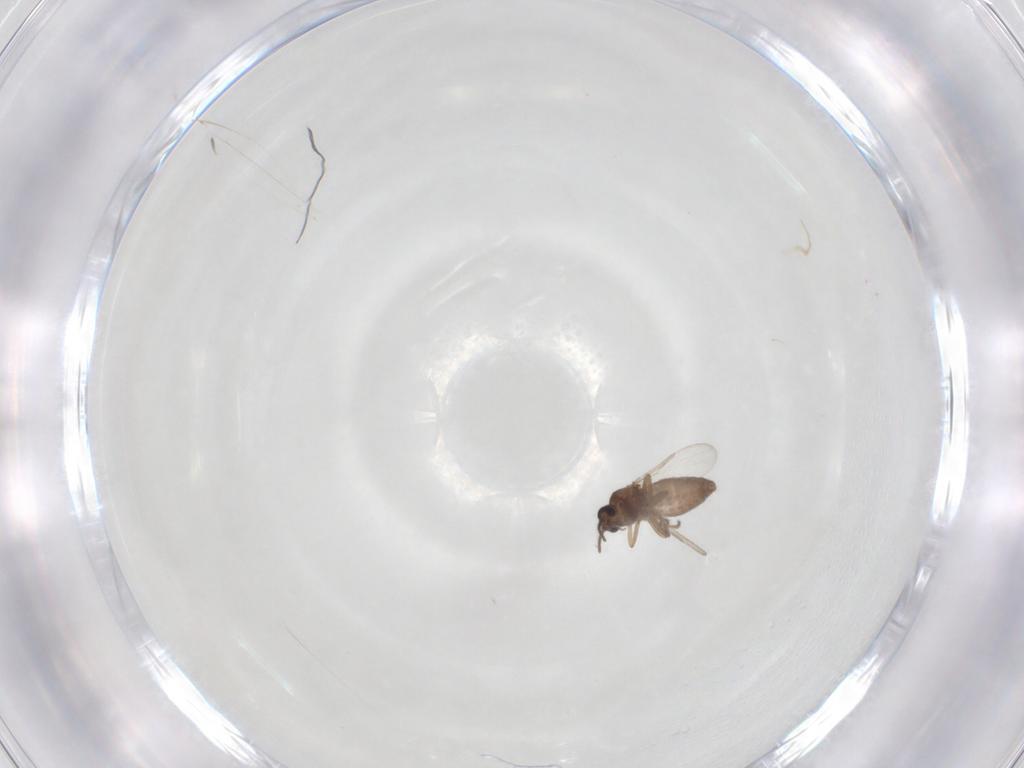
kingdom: Animalia
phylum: Arthropoda
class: Insecta
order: Diptera
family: Ceratopogonidae
